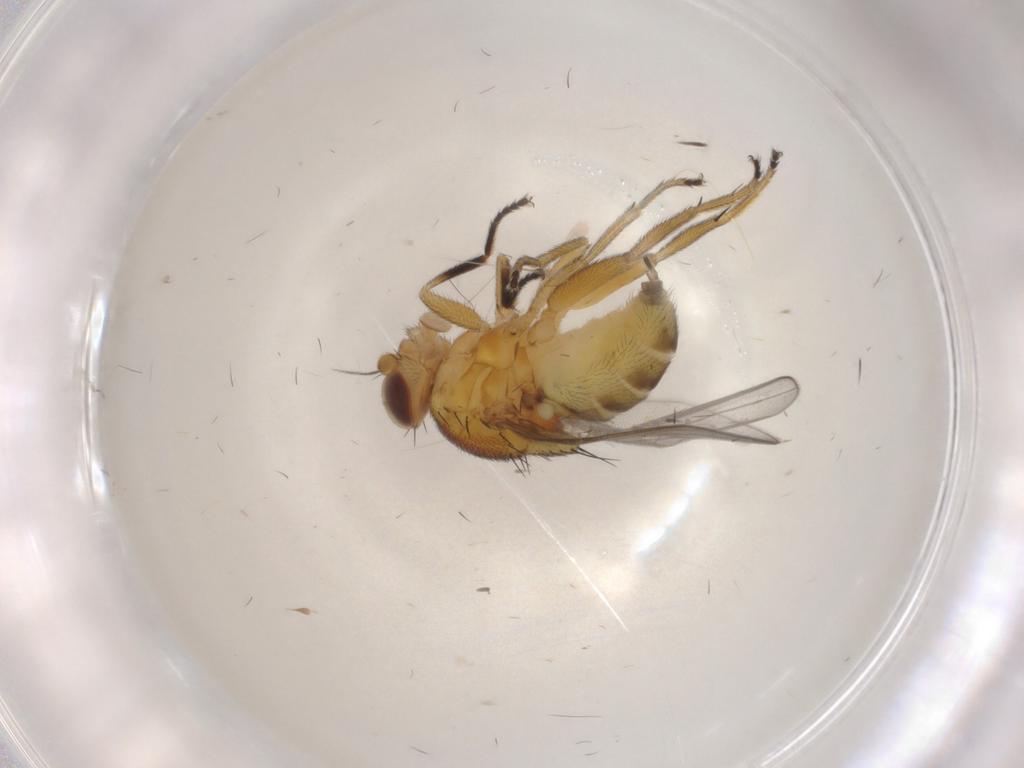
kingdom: Animalia
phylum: Arthropoda
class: Insecta
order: Diptera
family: Chloropidae
